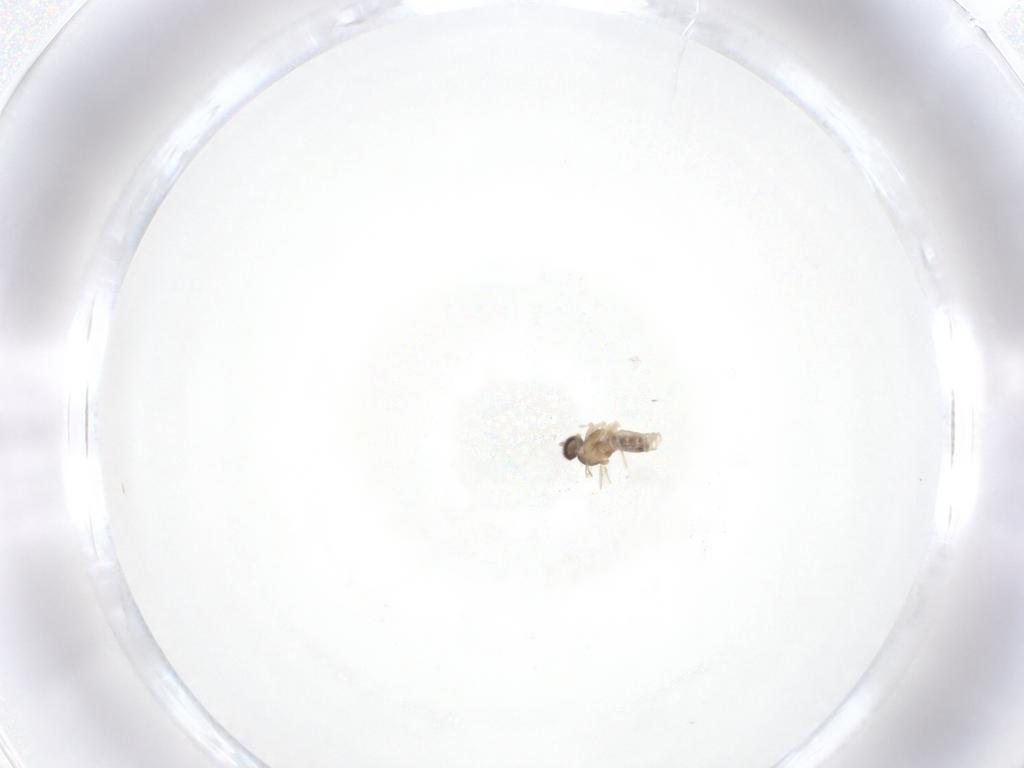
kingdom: Animalia
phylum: Arthropoda
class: Insecta
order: Diptera
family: Cecidomyiidae
